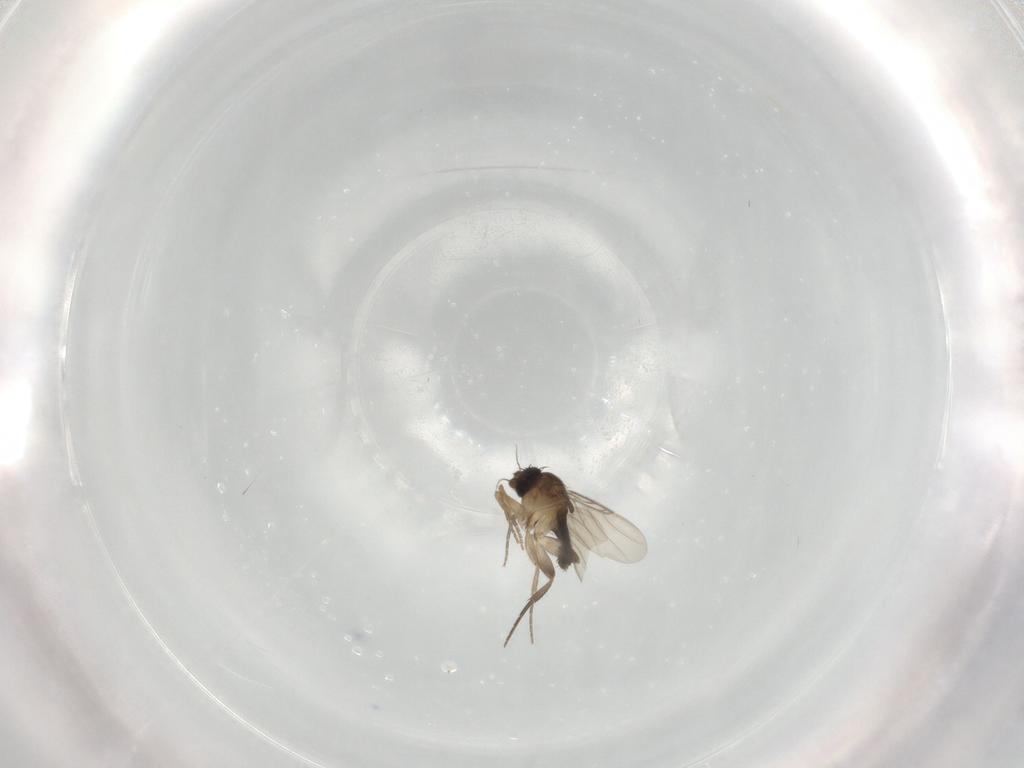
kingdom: Animalia
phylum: Arthropoda
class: Insecta
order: Diptera
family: Phoridae
